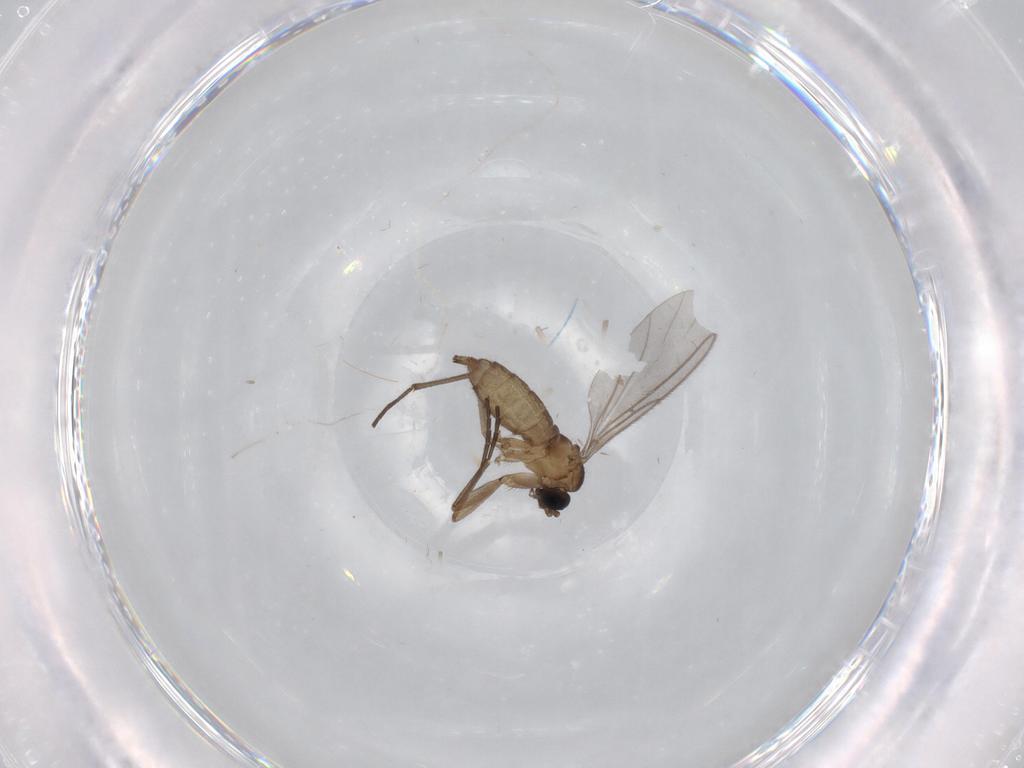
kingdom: Animalia
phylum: Arthropoda
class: Insecta
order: Diptera
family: Sciaridae
